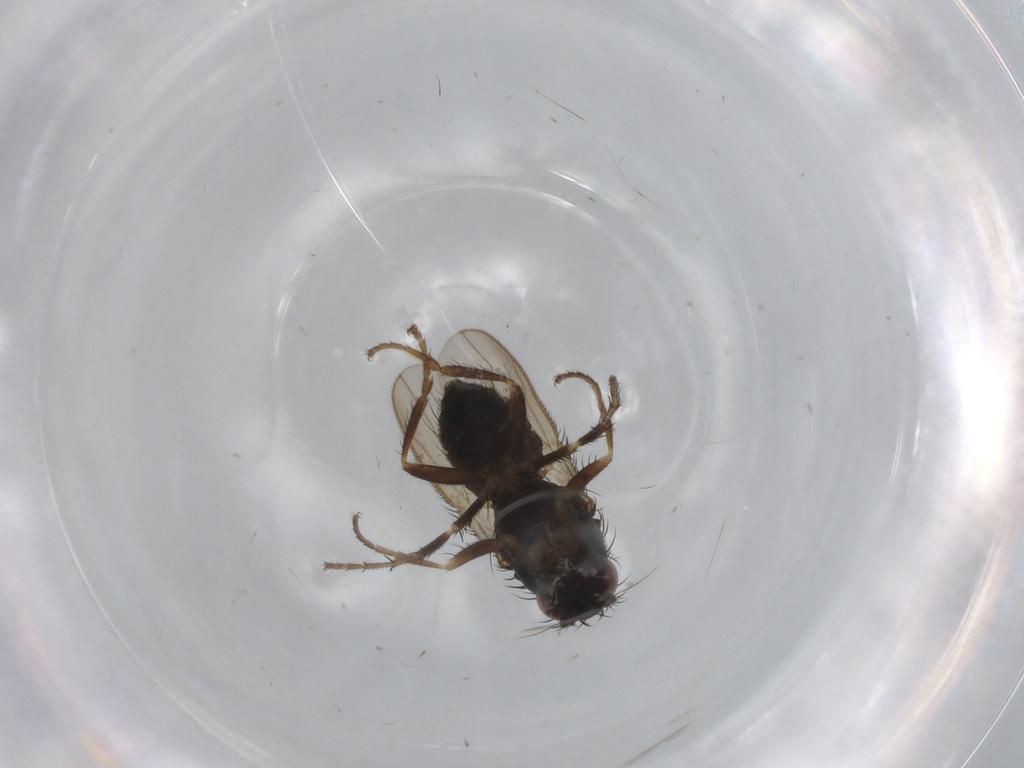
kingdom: Animalia
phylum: Arthropoda
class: Insecta
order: Diptera
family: Sphaeroceridae
